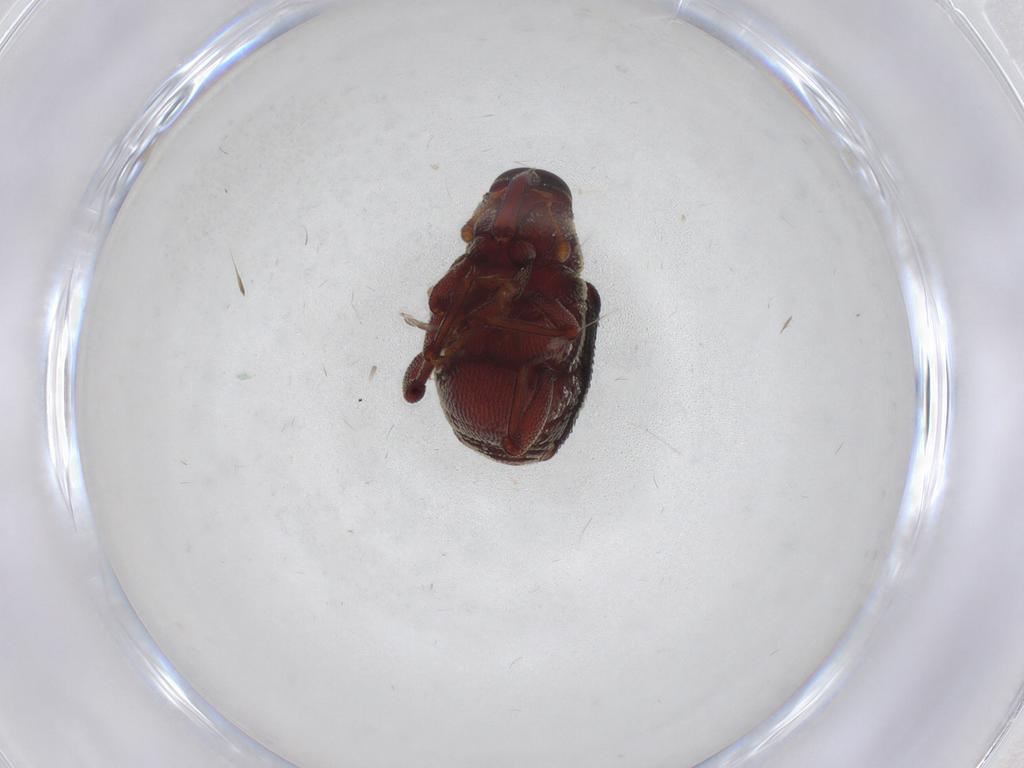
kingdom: Animalia
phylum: Arthropoda
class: Insecta
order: Coleoptera
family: Curculionidae
